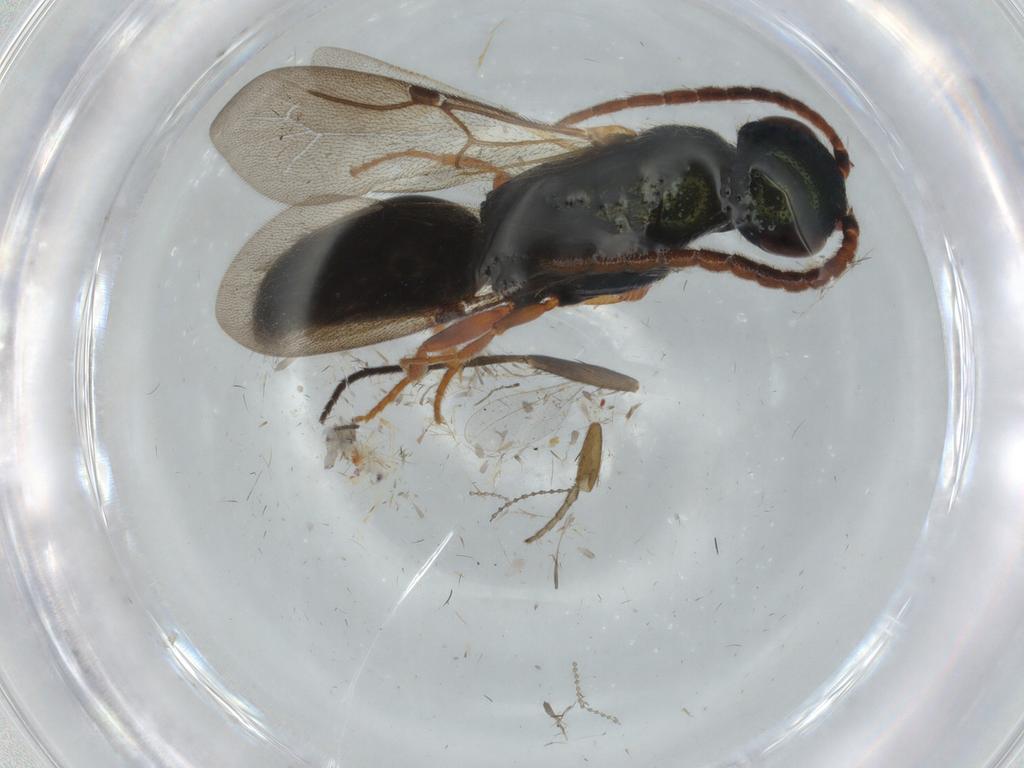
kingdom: Animalia
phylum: Arthropoda
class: Insecta
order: Hymenoptera
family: Bethylidae
